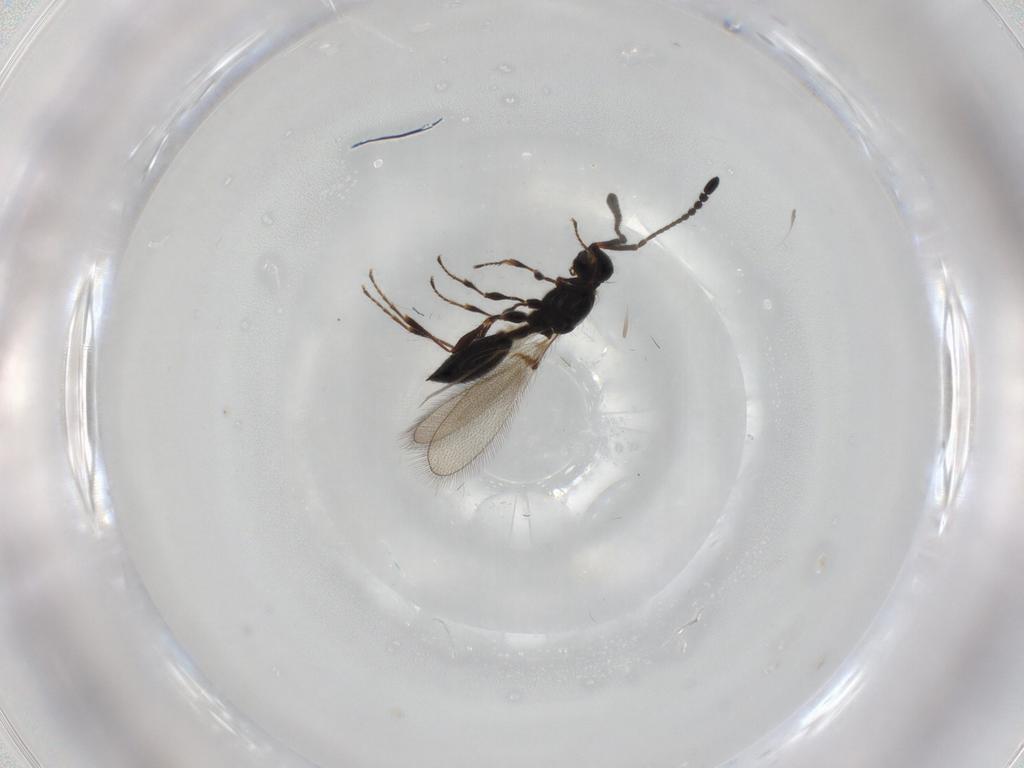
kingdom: Animalia
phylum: Arthropoda
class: Insecta
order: Hymenoptera
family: Diapriidae
